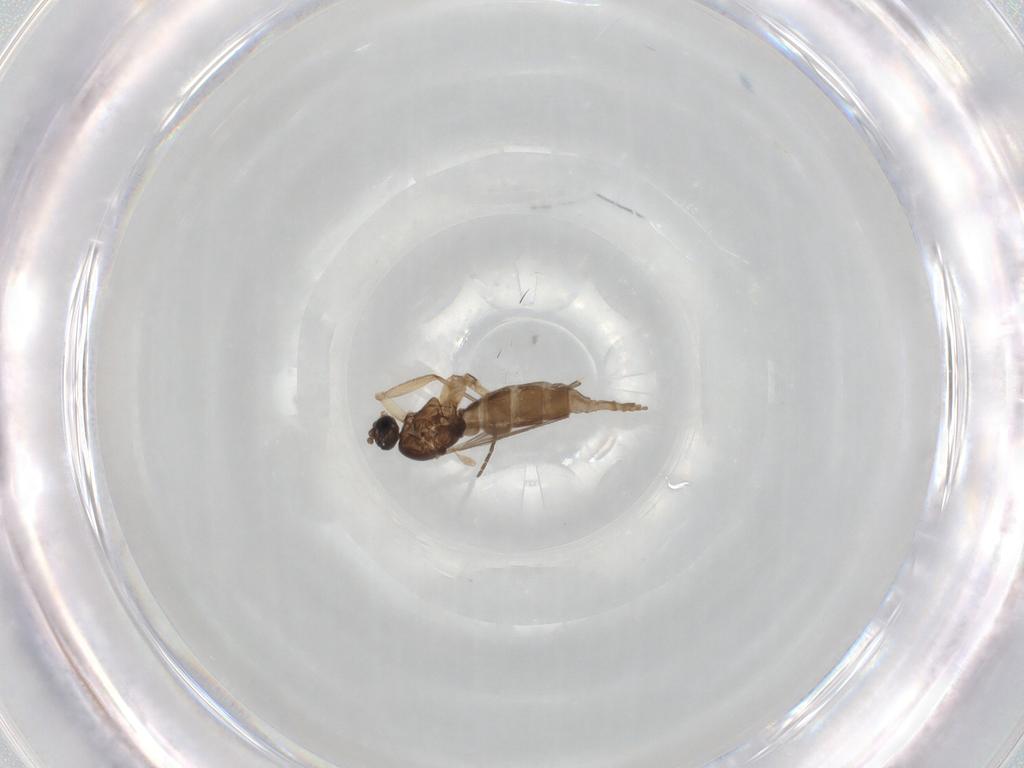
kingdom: Animalia
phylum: Arthropoda
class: Insecta
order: Diptera
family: Sciaridae
